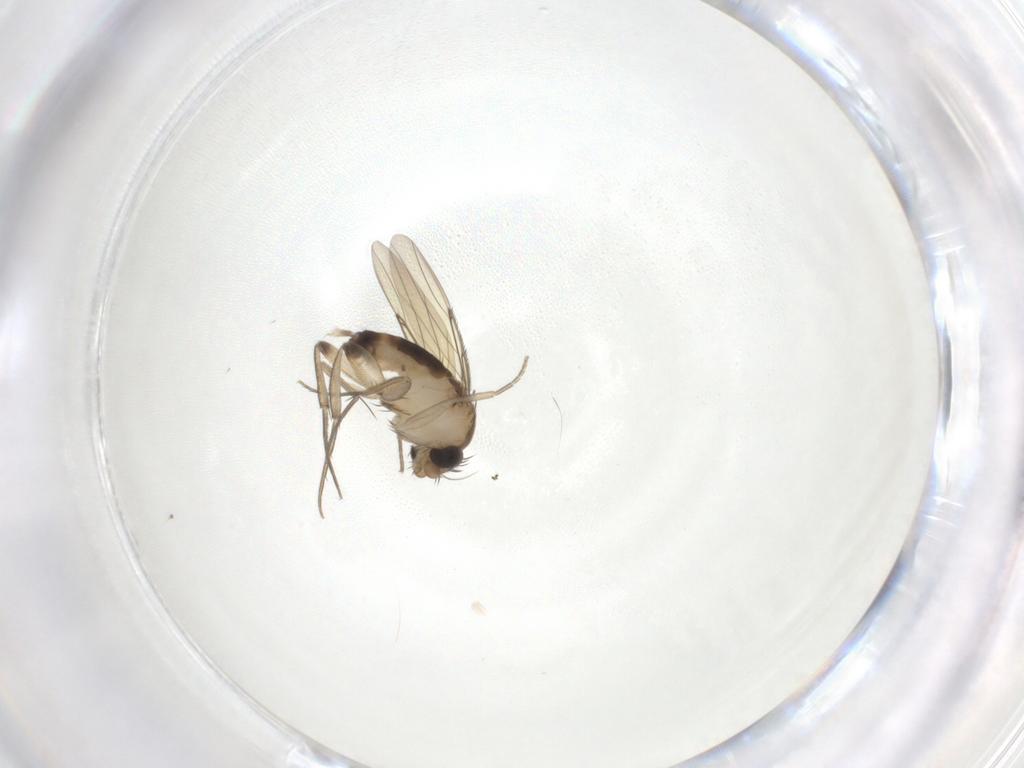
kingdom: Animalia
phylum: Arthropoda
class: Insecta
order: Diptera
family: Phoridae
